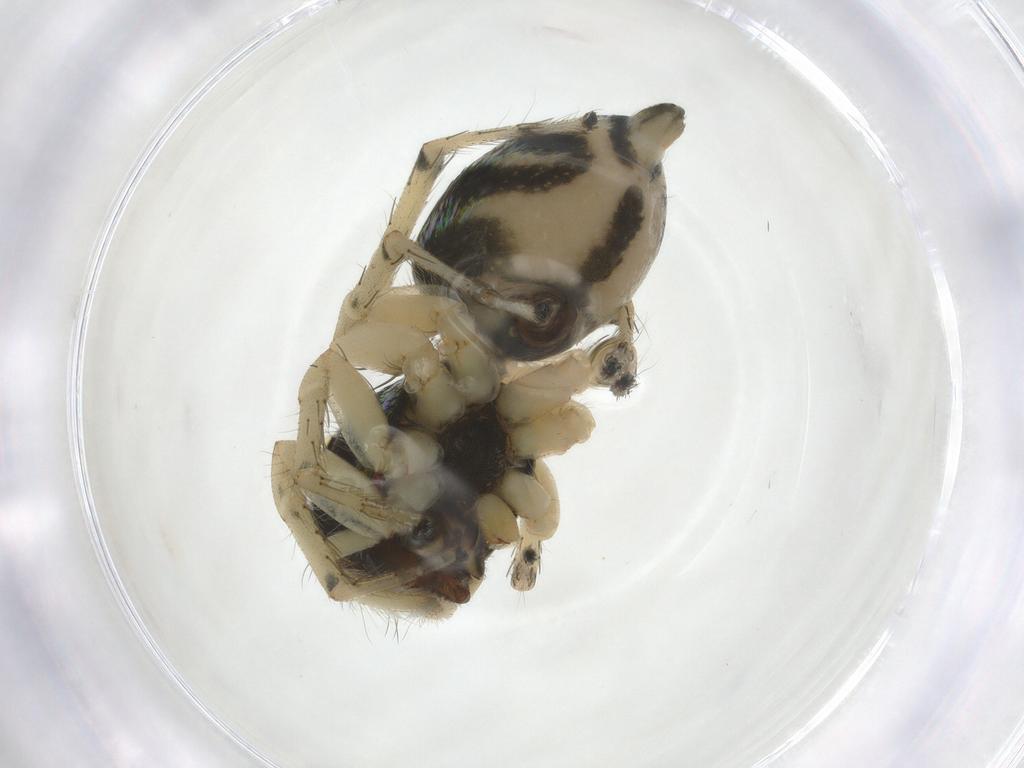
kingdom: Animalia
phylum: Arthropoda
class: Arachnida
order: Araneae
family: Salticidae
